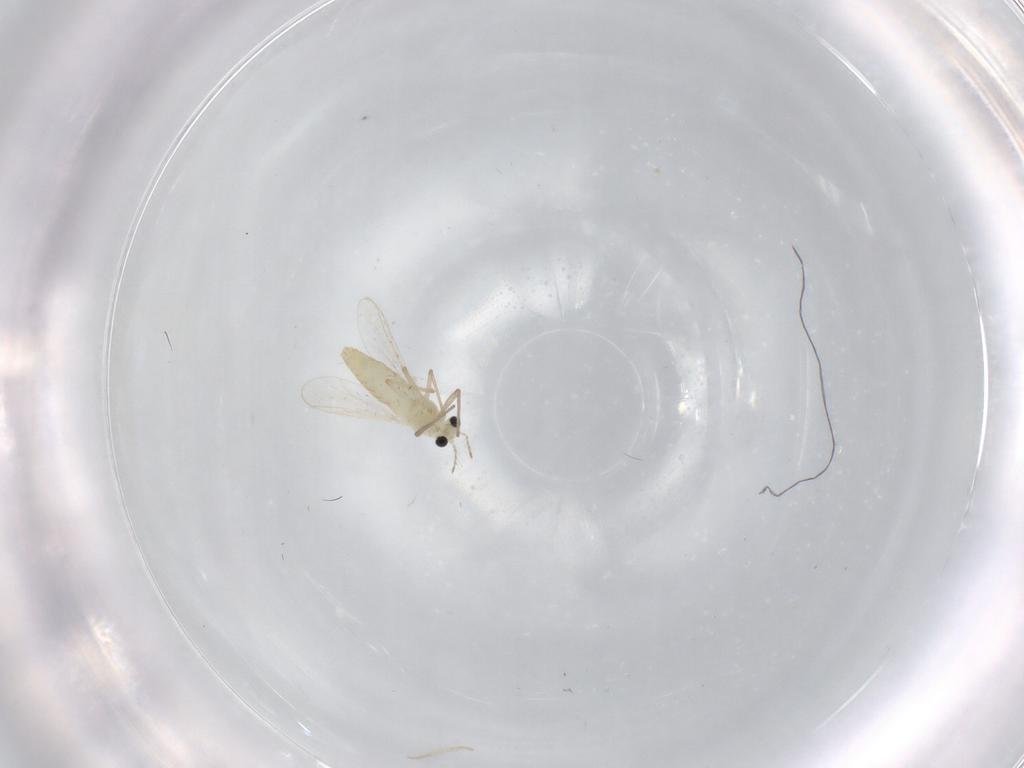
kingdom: Animalia
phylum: Arthropoda
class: Insecta
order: Diptera
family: Chironomidae
